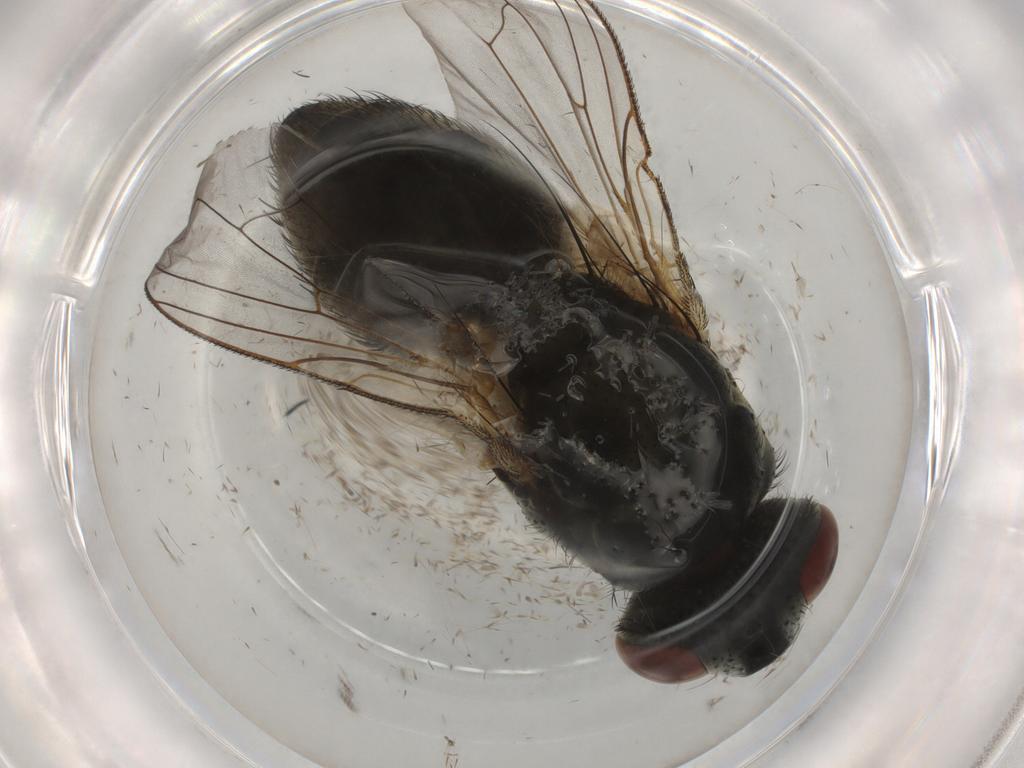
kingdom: Animalia
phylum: Arthropoda
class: Insecta
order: Diptera
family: Sarcophagidae
